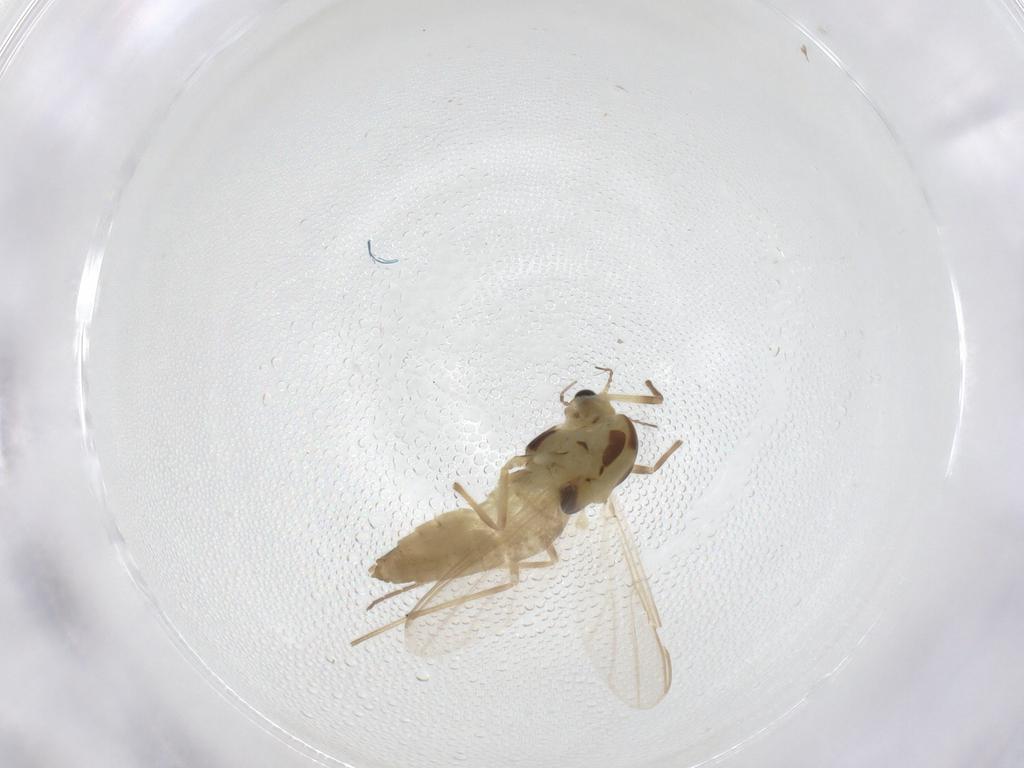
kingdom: Animalia
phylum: Arthropoda
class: Insecta
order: Diptera
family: Chironomidae
